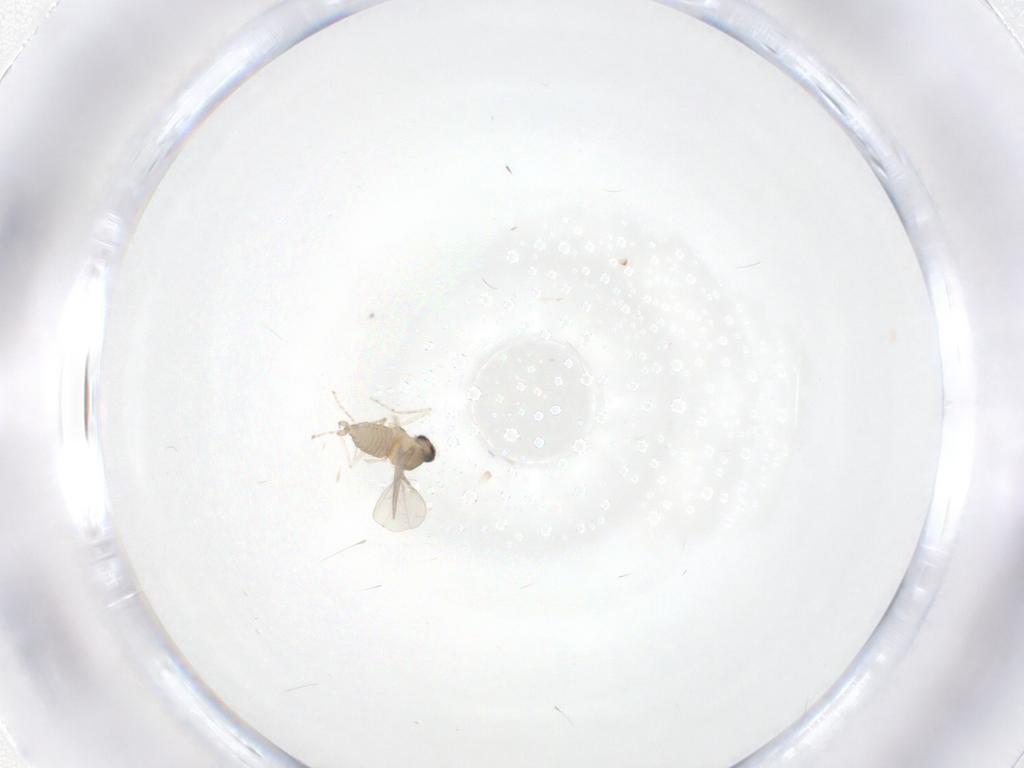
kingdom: Animalia
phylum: Arthropoda
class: Insecta
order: Diptera
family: Cecidomyiidae
